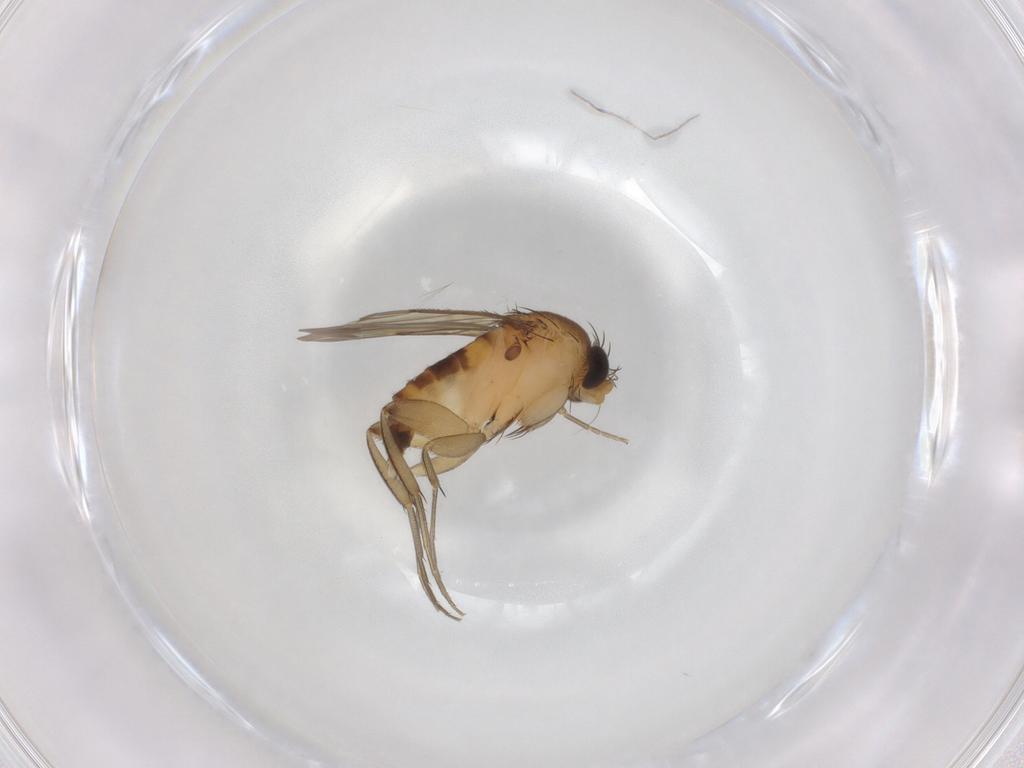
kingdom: Animalia
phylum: Arthropoda
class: Insecta
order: Diptera
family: Phoridae
